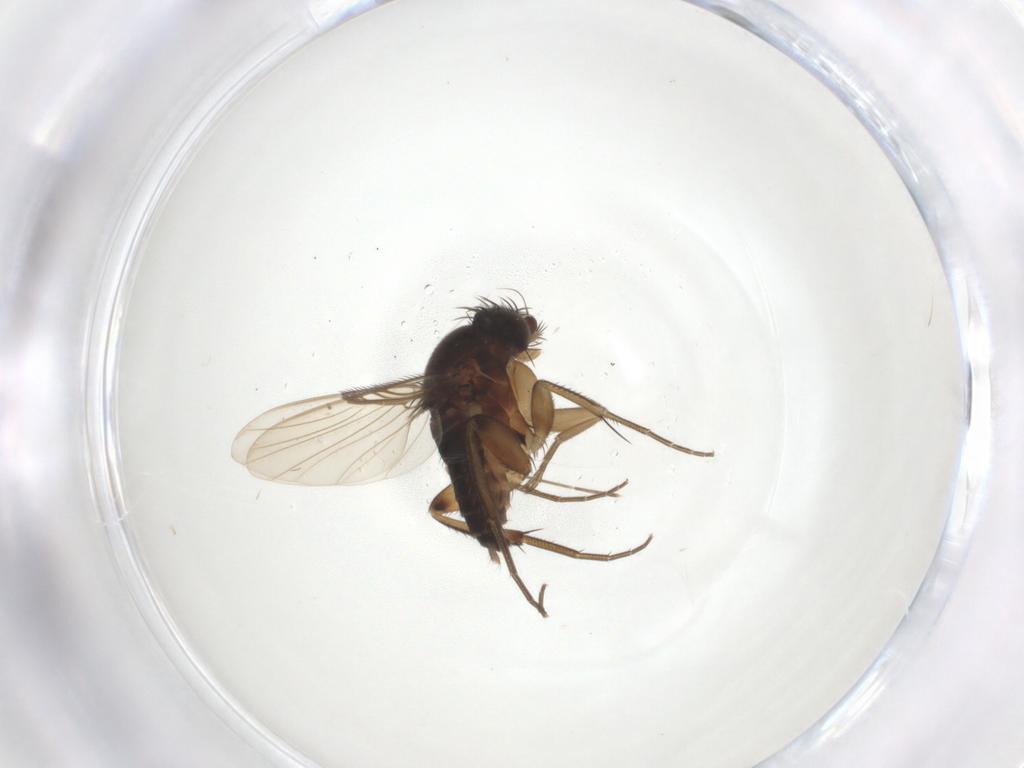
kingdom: Animalia
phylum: Arthropoda
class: Insecta
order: Diptera
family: Phoridae
